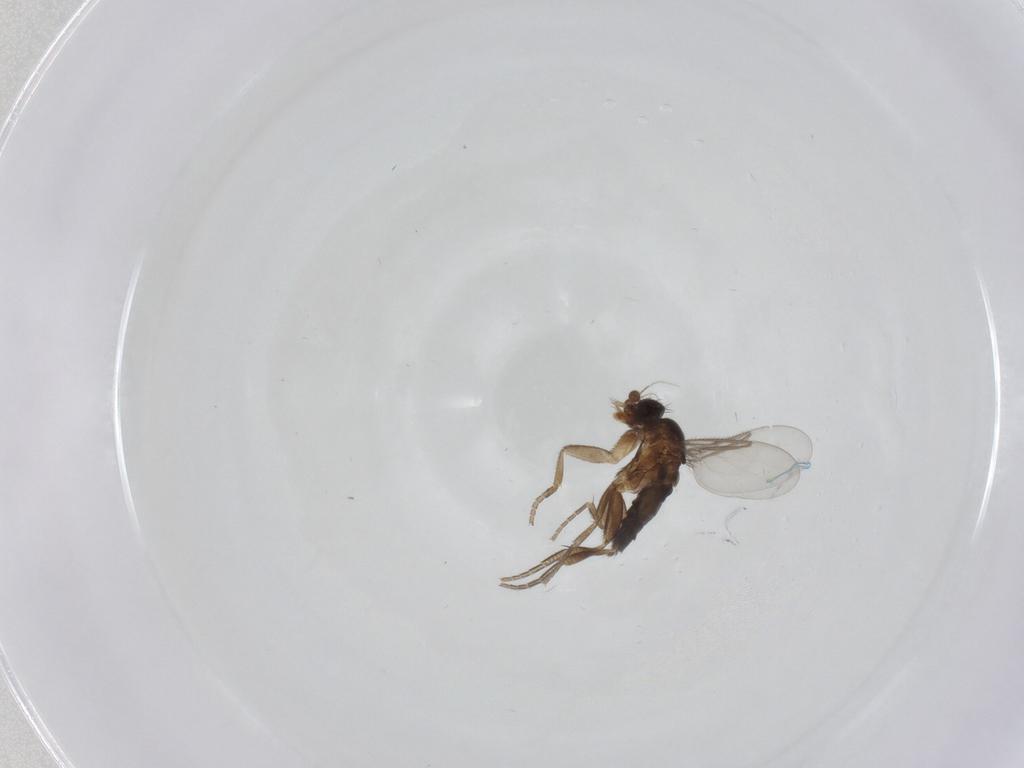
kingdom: Animalia
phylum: Arthropoda
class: Insecta
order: Diptera
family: Phoridae
